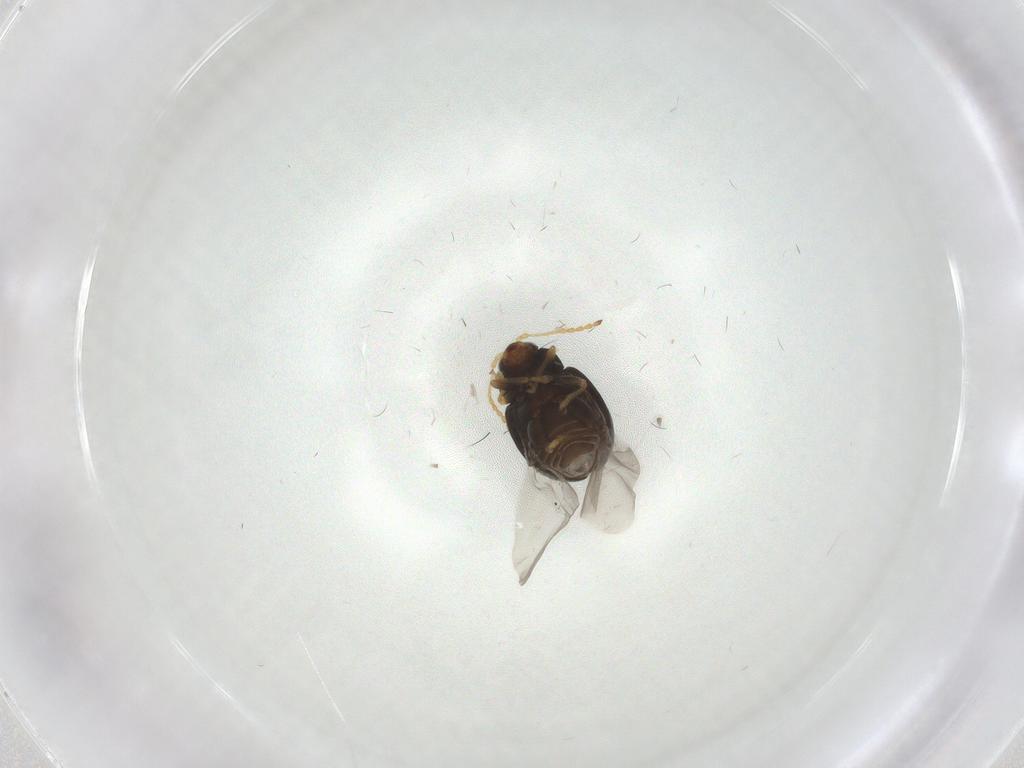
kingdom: Animalia
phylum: Arthropoda
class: Insecta
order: Coleoptera
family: Chrysomelidae
